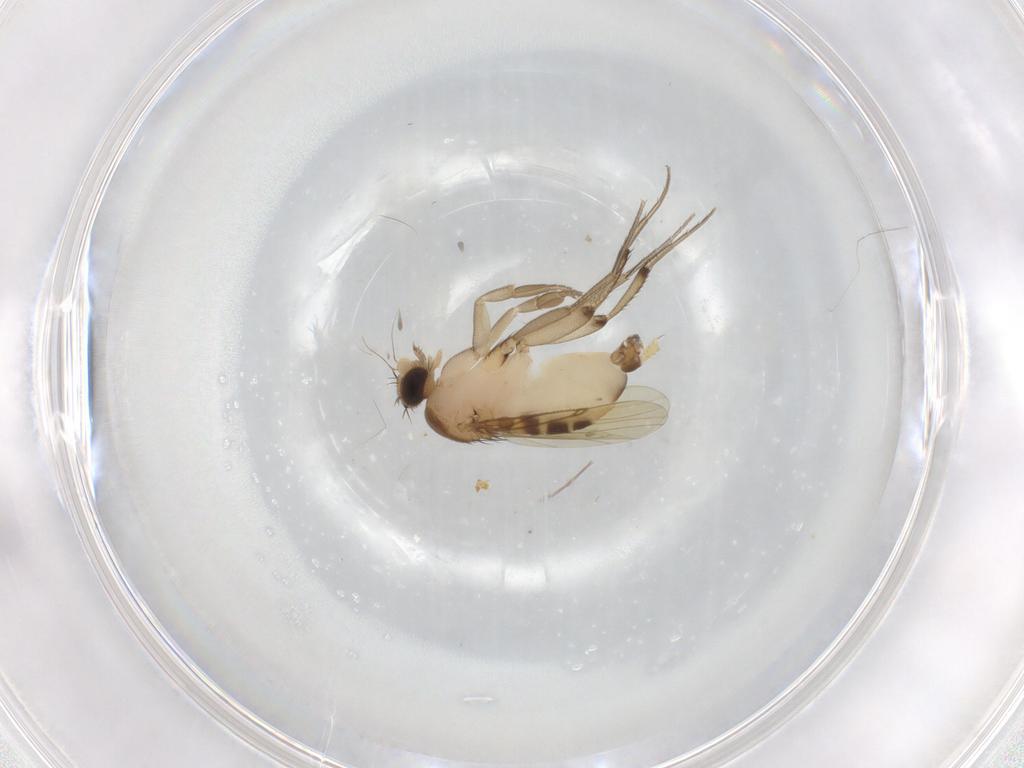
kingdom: Animalia
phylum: Arthropoda
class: Insecta
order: Diptera
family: Phoridae
